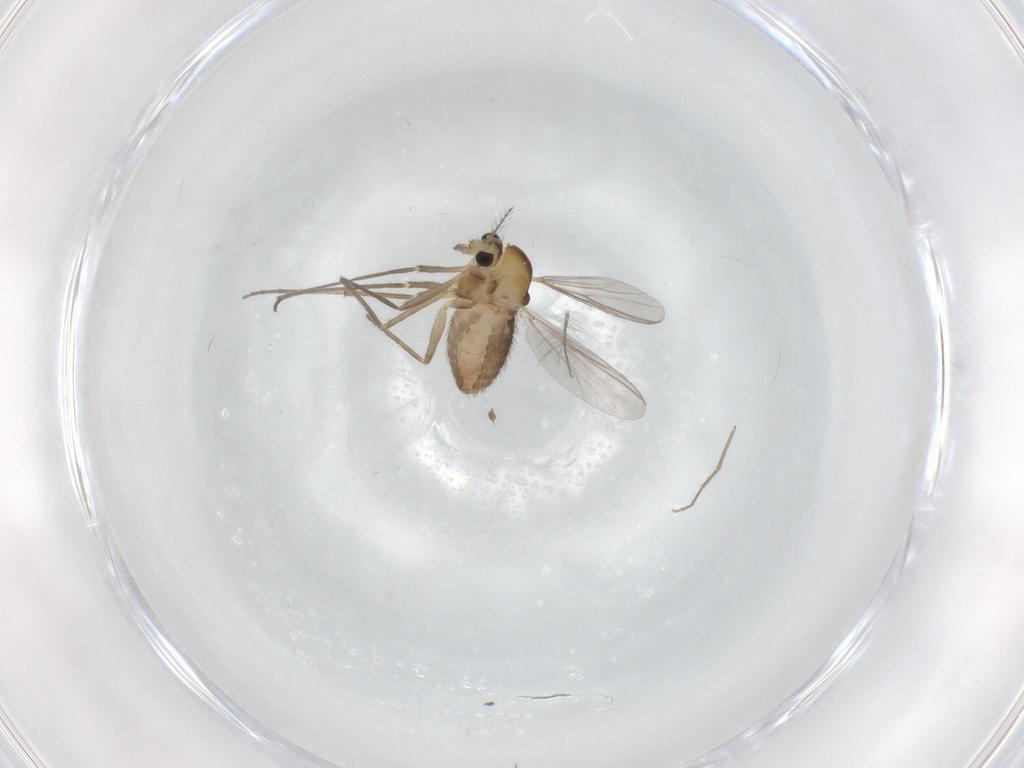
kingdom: Animalia
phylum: Arthropoda
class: Insecta
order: Diptera
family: Chironomidae
